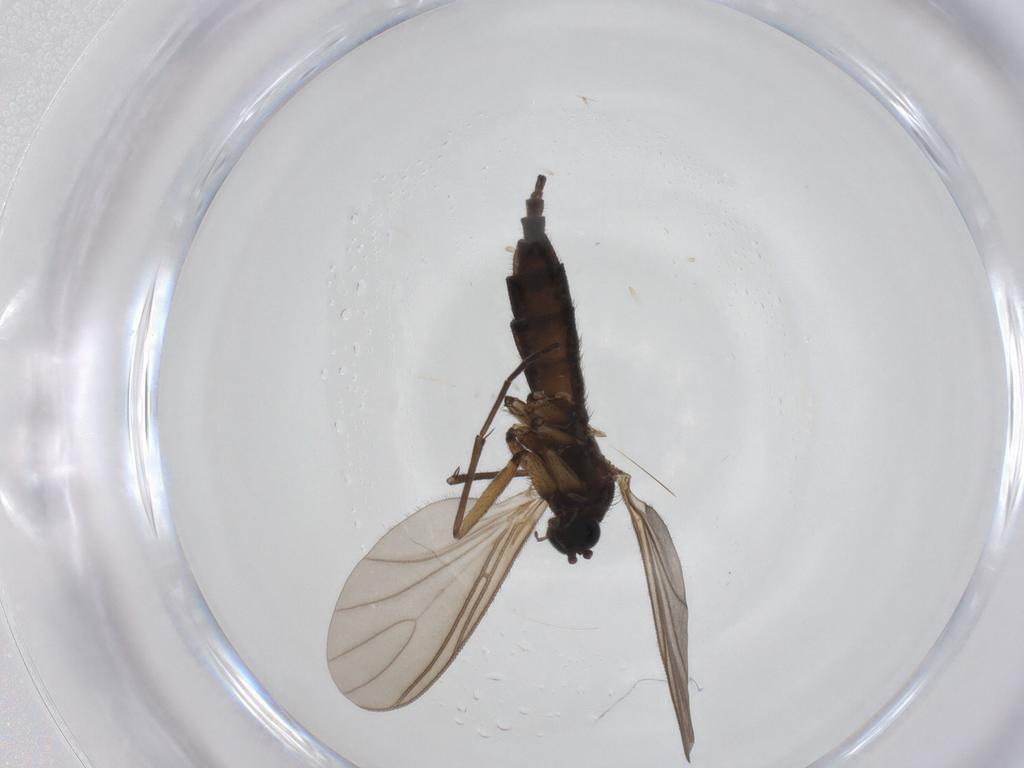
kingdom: Animalia
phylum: Arthropoda
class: Insecta
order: Diptera
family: Sciaridae
